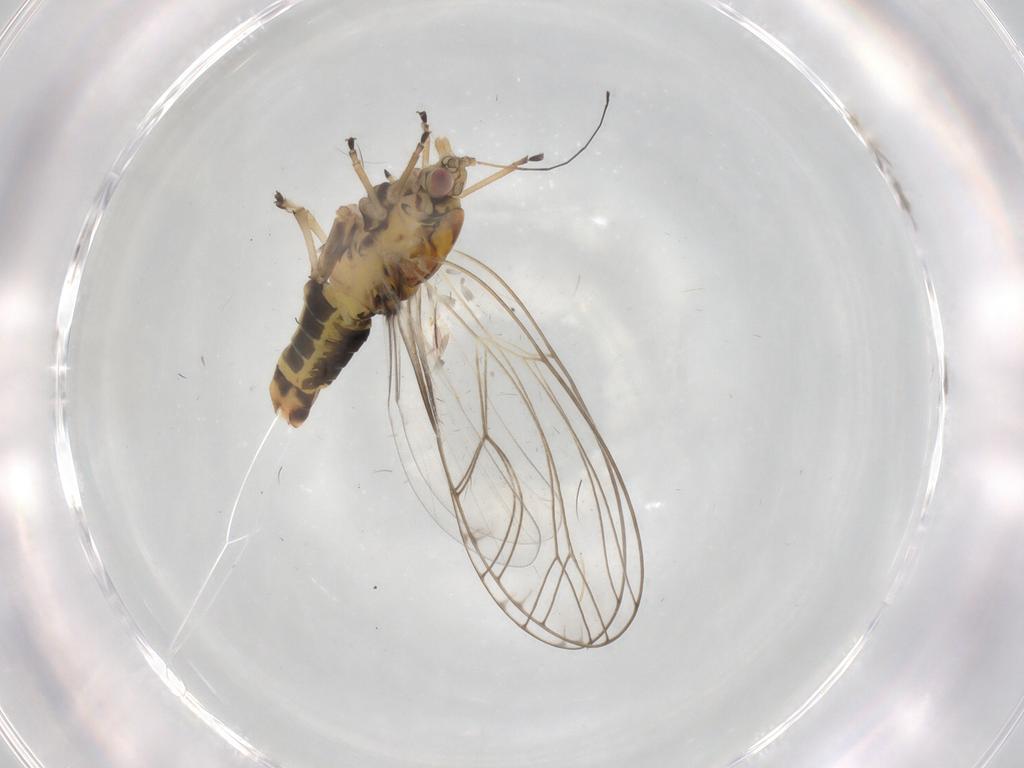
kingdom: Animalia
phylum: Arthropoda
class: Insecta
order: Hemiptera
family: Triozidae
